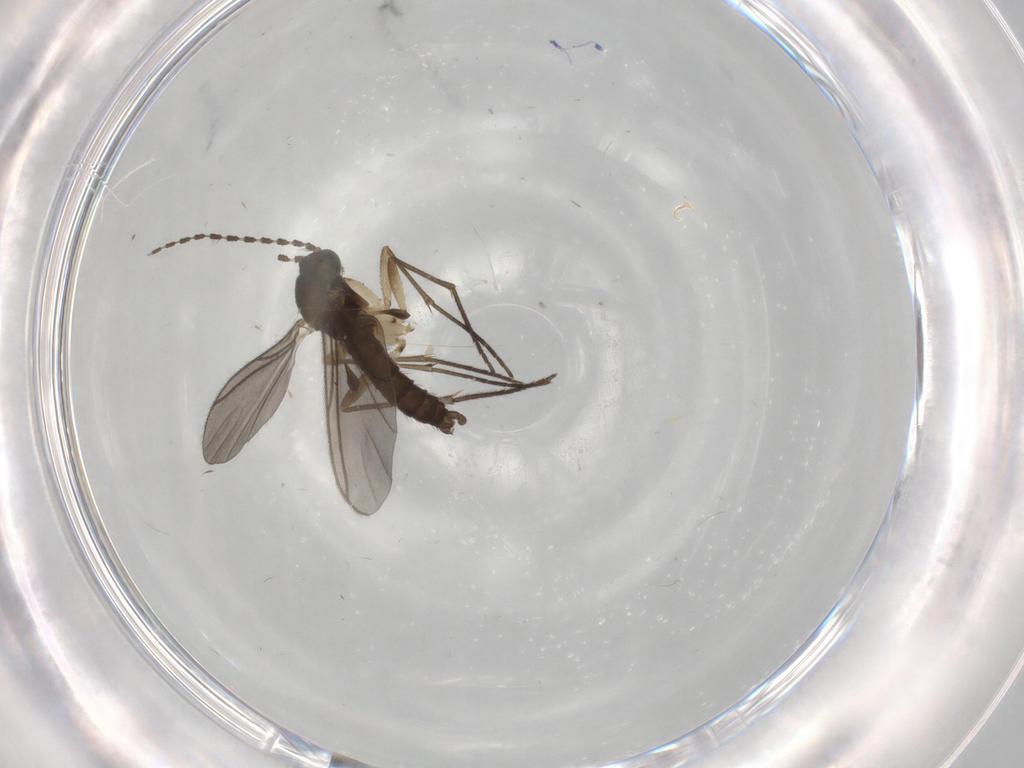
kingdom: Animalia
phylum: Arthropoda
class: Insecta
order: Diptera
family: Sciaridae
